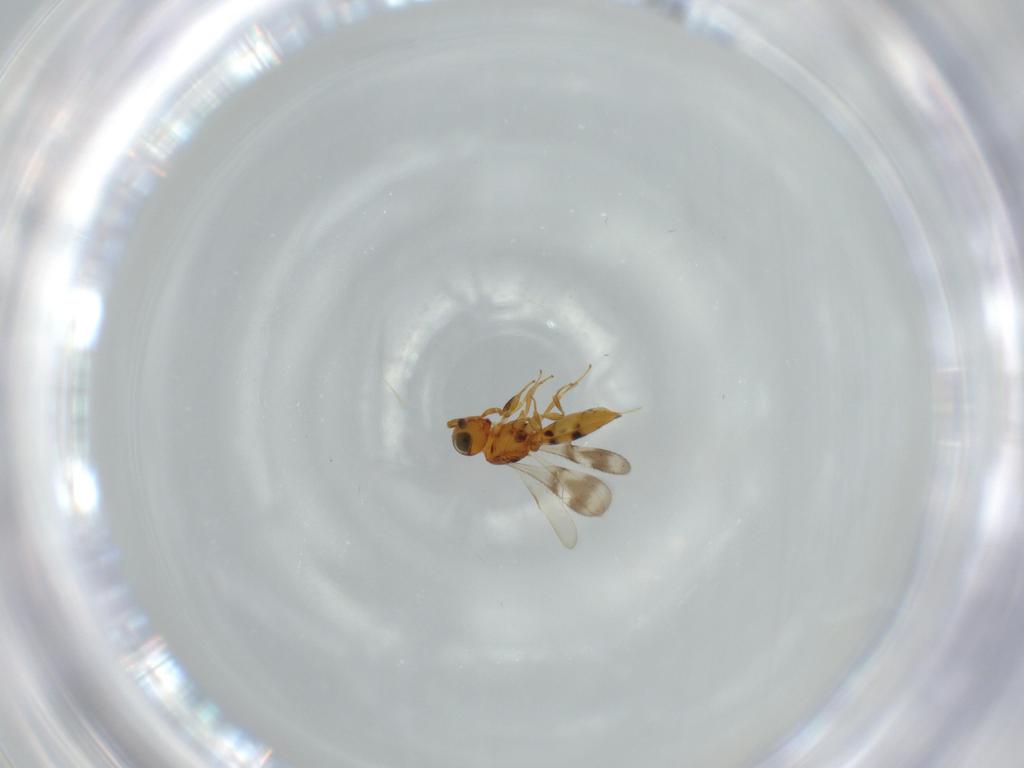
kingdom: Animalia
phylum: Arthropoda
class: Insecta
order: Hymenoptera
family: Scelionidae
